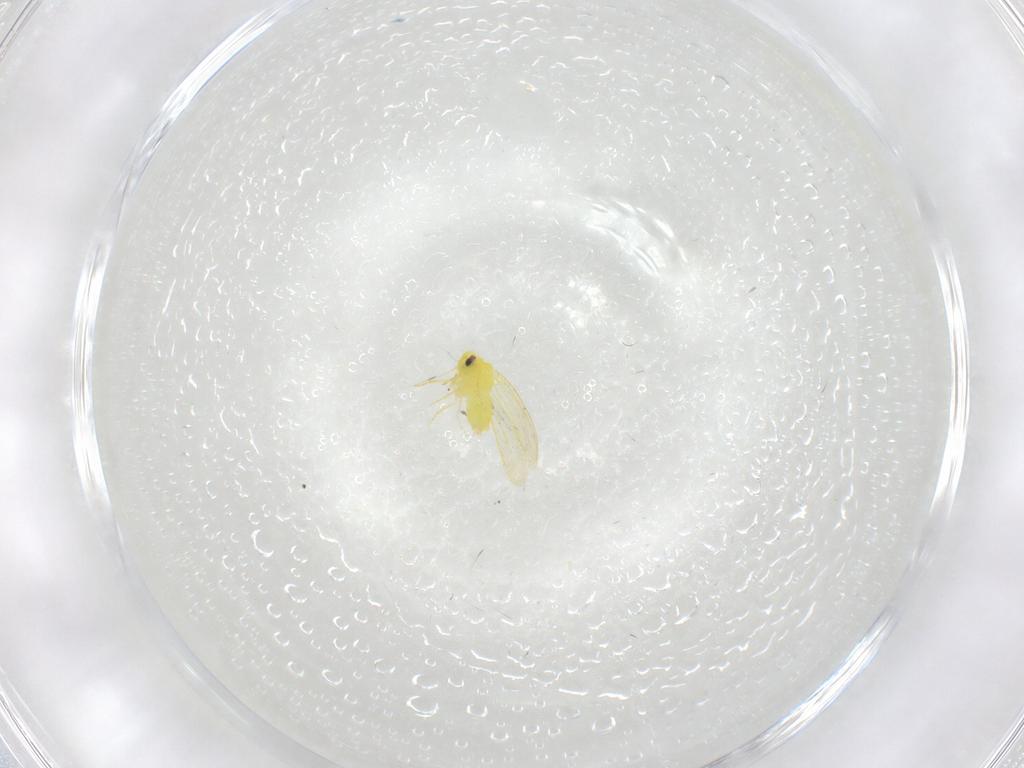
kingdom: Animalia
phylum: Arthropoda
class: Insecta
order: Hemiptera
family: Aleyrodidae
